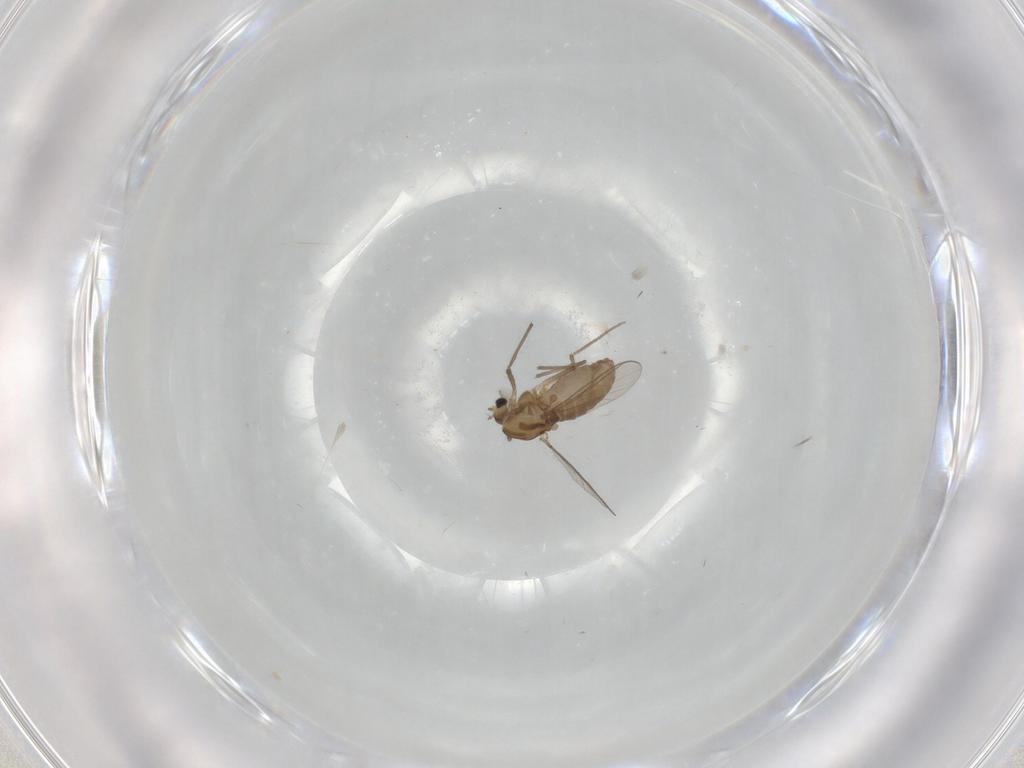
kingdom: Animalia
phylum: Arthropoda
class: Insecta
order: Diptera
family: Chironomidae
